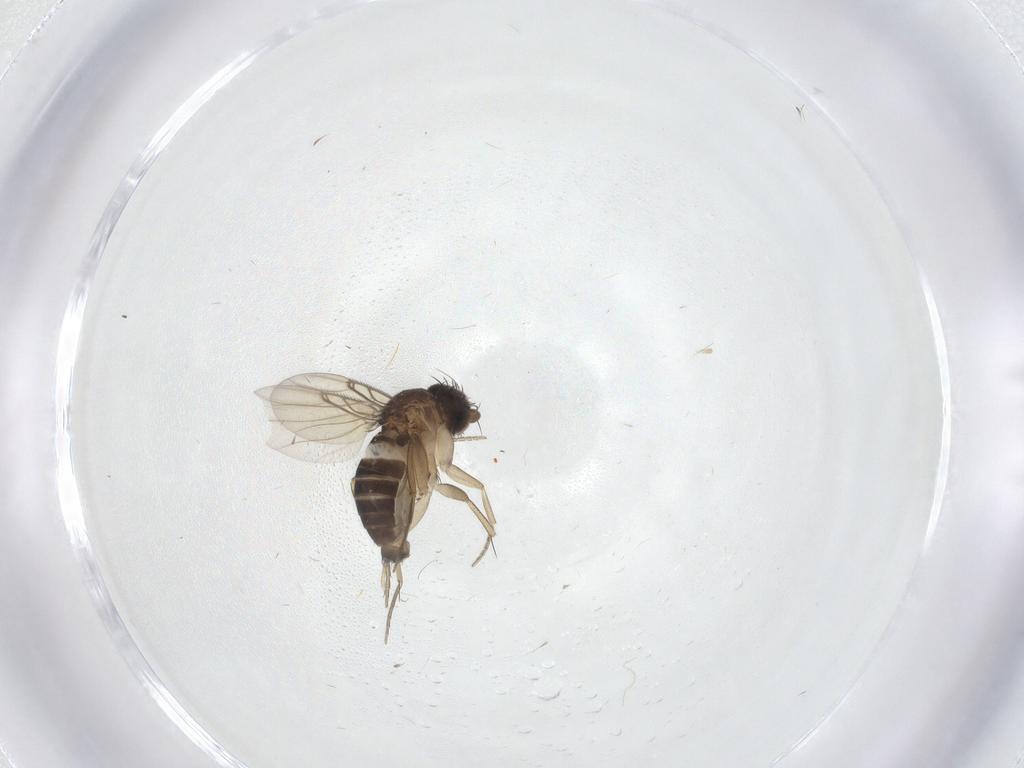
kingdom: Animalia
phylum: Arthropoda
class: Insecta
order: Diptera
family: Phoridae
